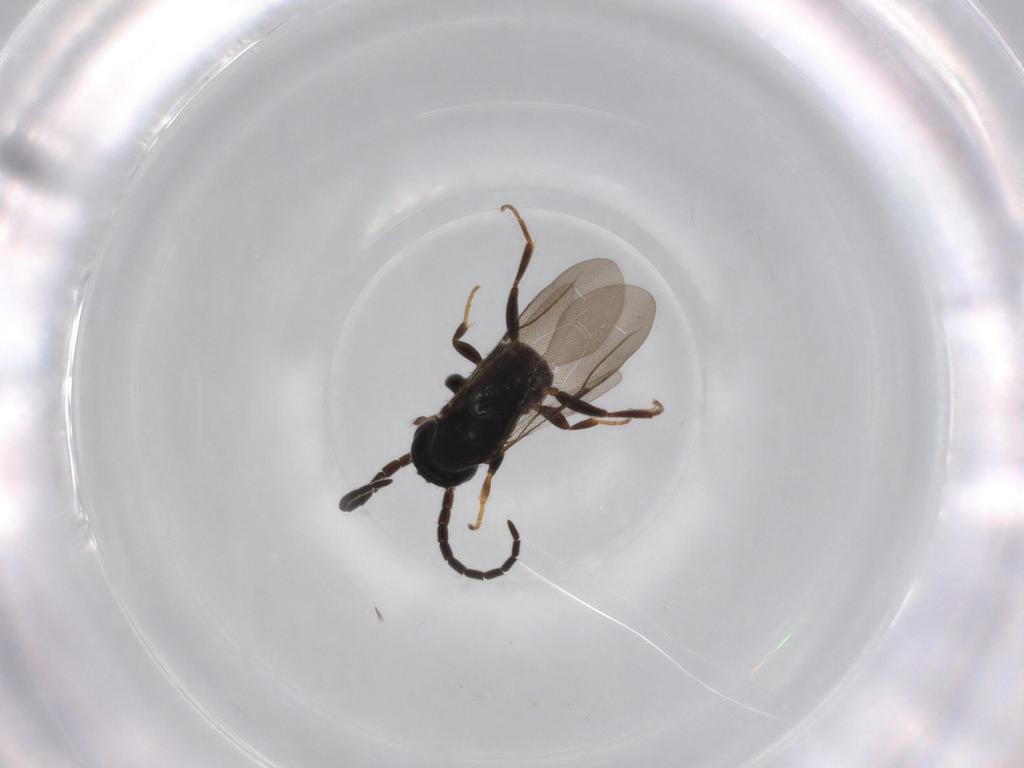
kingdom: Animalia
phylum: Arthropoda
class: Insecta
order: Hymenoptera
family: Bethylidae
